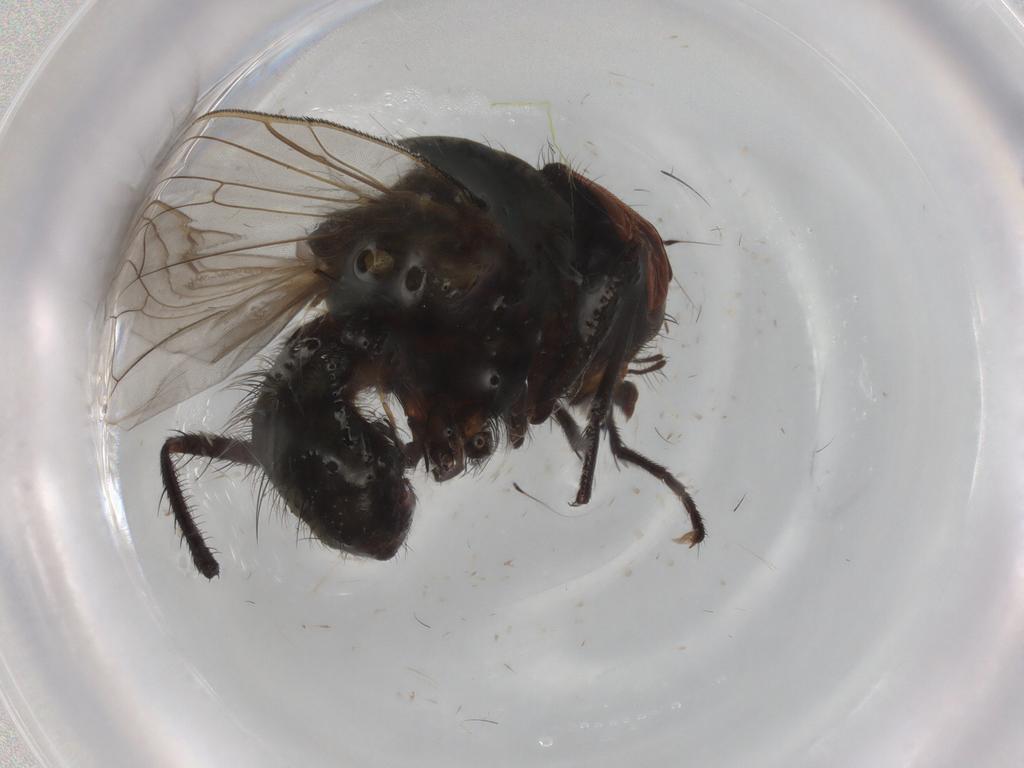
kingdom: Animalia
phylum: Arthropoda
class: Insecta
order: Diptera
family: Muscidae
